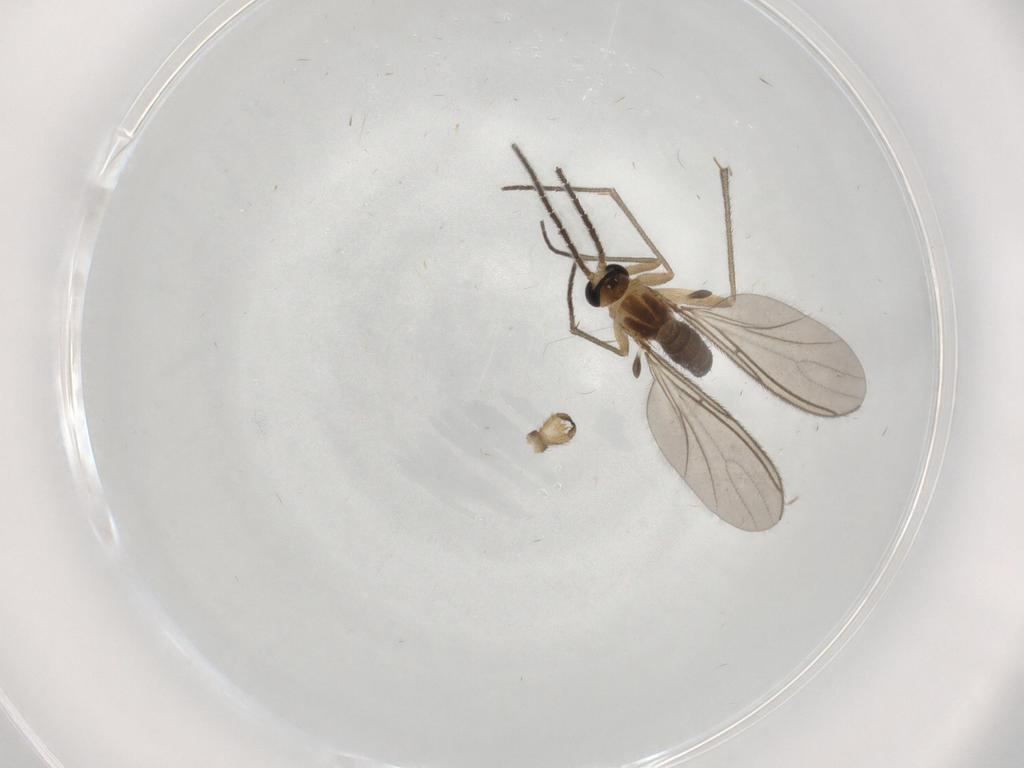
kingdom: Animalia
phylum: Arthropoda
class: Insecta
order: Diptera
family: Sciaridae
